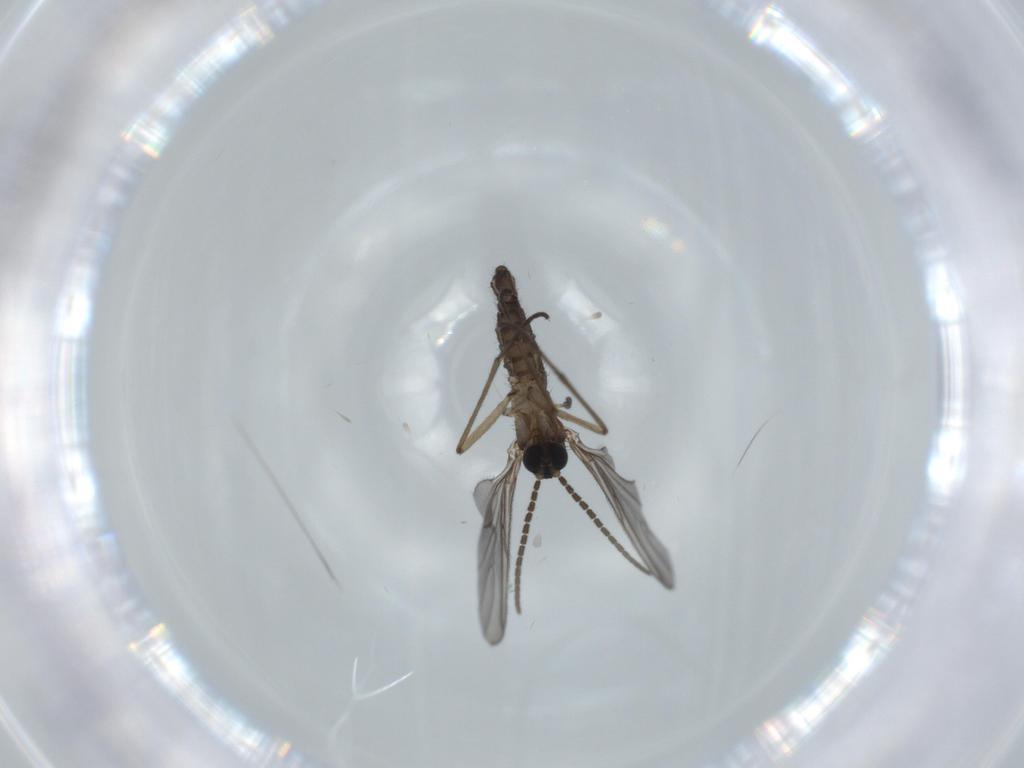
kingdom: Animalia
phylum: Arthropoda
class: Insecta
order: Diptera
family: Sciaridae
